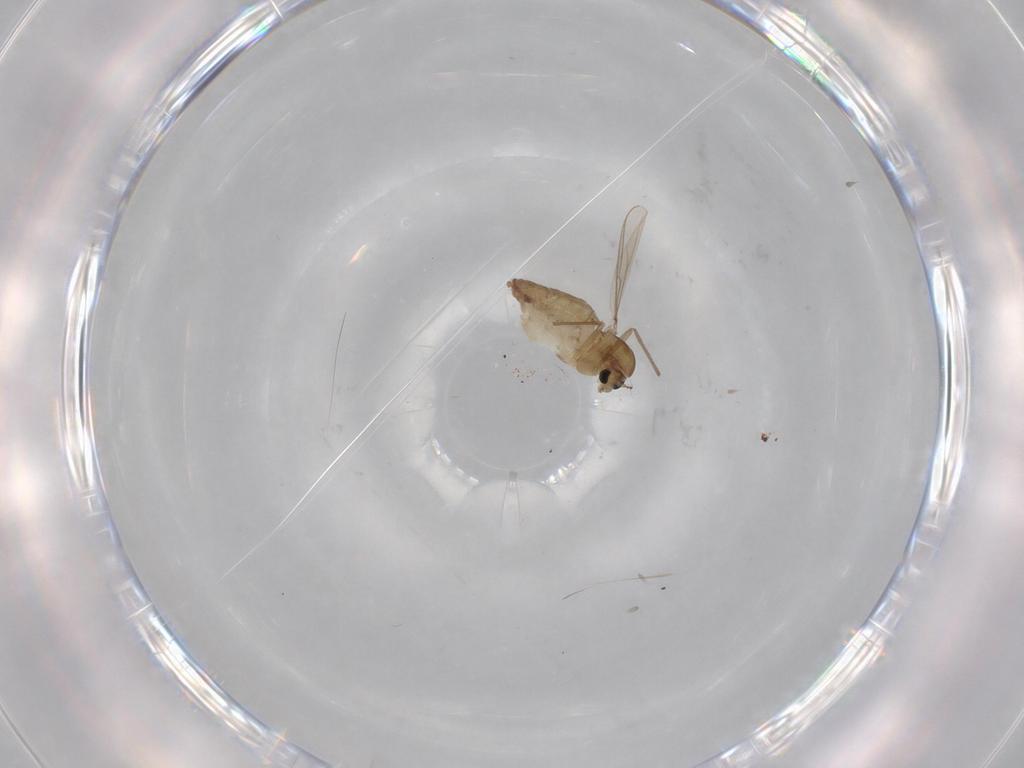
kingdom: Animalia
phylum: Arthropoda
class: Insecta
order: Diptera
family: Chironomidae
